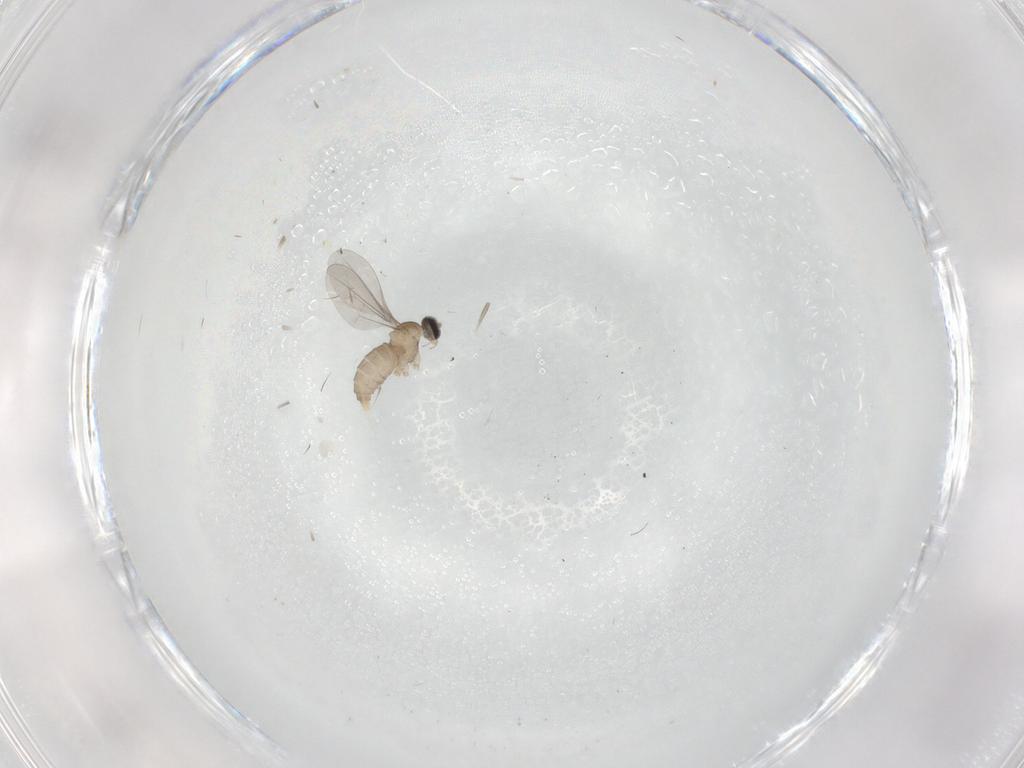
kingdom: Animalia
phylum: Arthropoda
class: Insecta
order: Diptera
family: Cecidomyiidae
